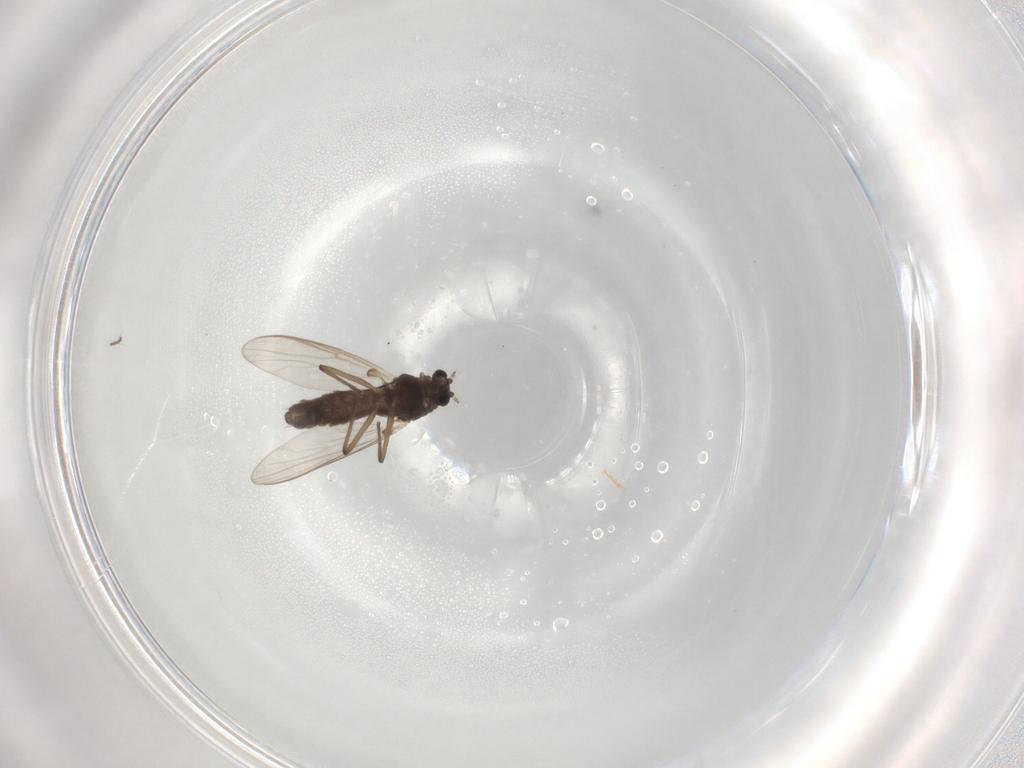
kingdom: Animalia
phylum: Arthropoda
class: Insecta
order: Diptera
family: Chironomidae
